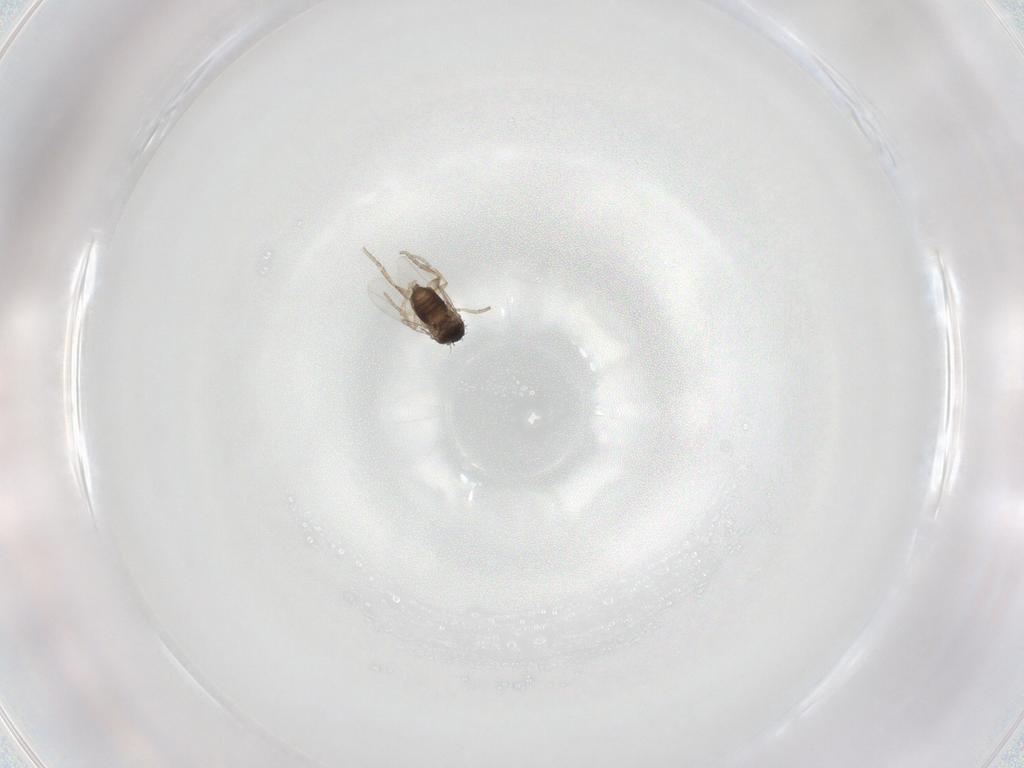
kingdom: Animalia
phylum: Arthropoda
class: Insecta
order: Diptera
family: Phoridae
